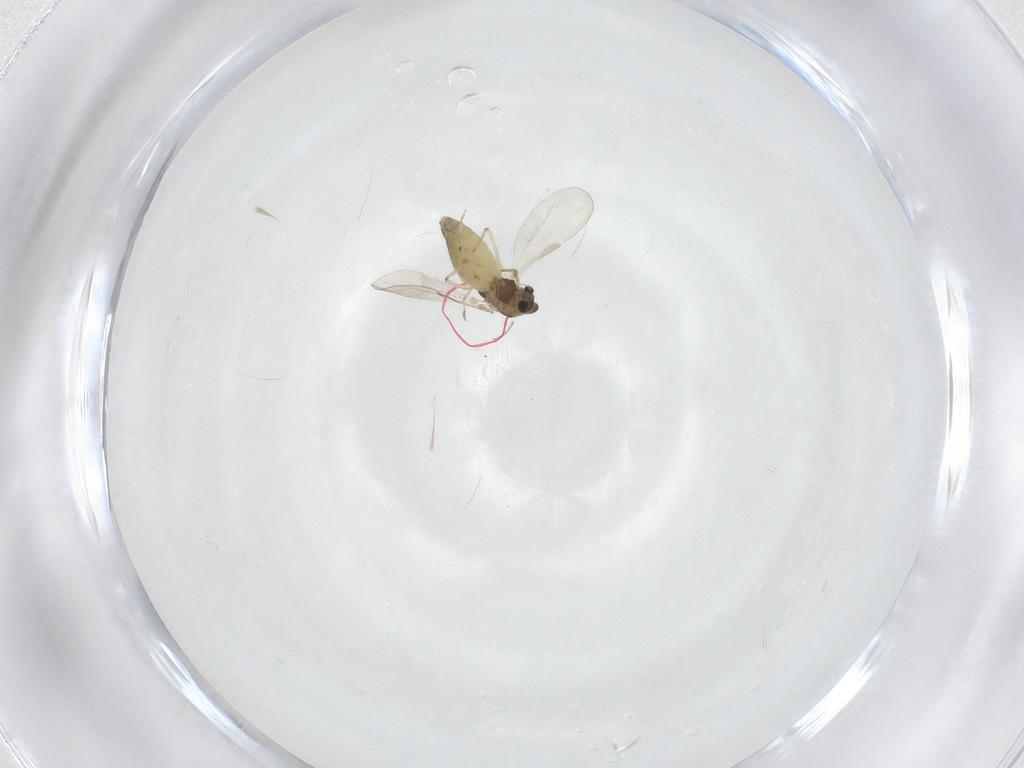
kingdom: Animalia
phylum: Arthropoda
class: Insecta
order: Diptera
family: Chironomidae
